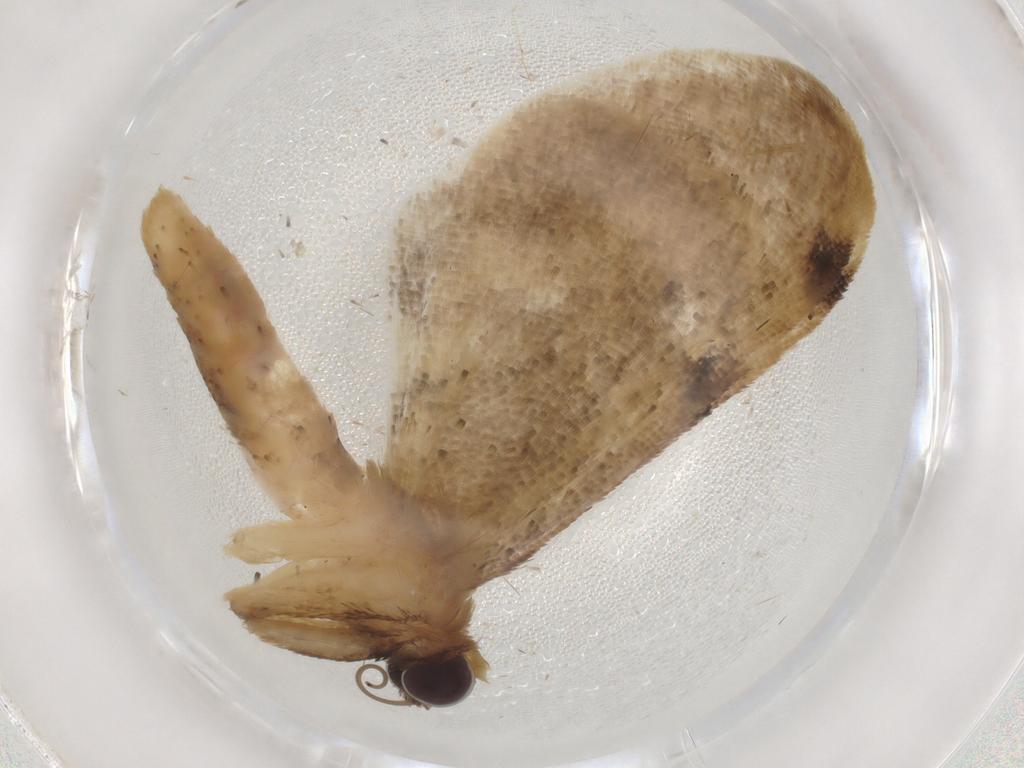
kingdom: Animalia
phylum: Arthropoda
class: Insecta
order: Lepidoptera
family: Geometridae
